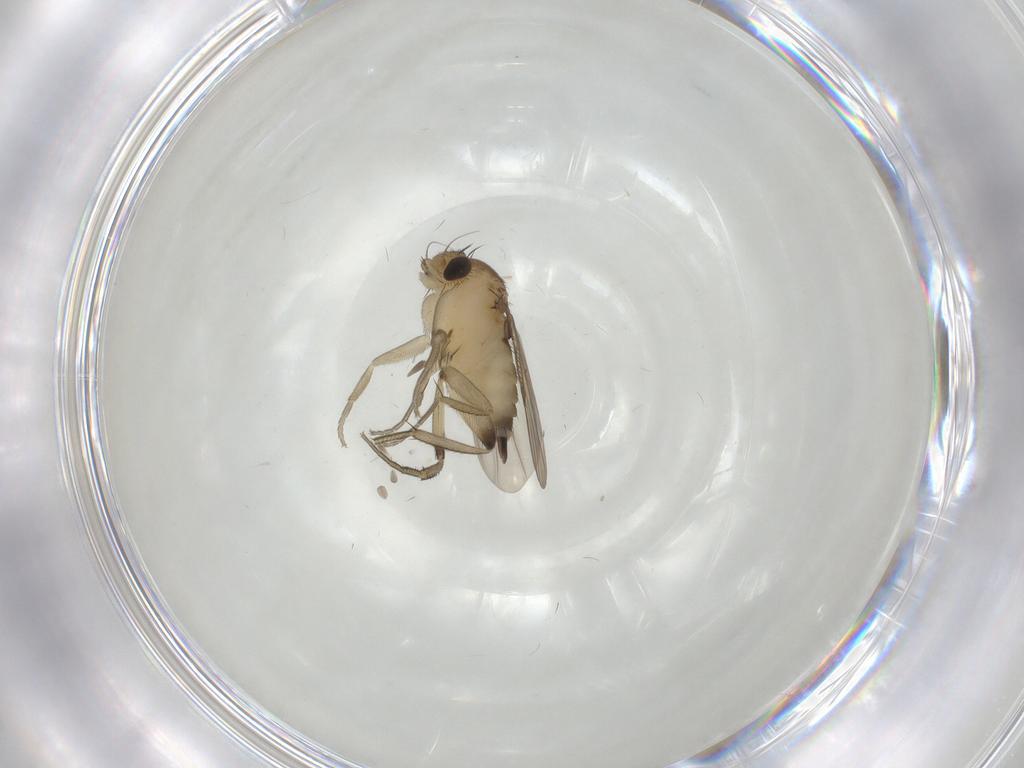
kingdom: Animalia
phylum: Arthropoda
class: Insecta
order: Diptera
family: Phoridae
